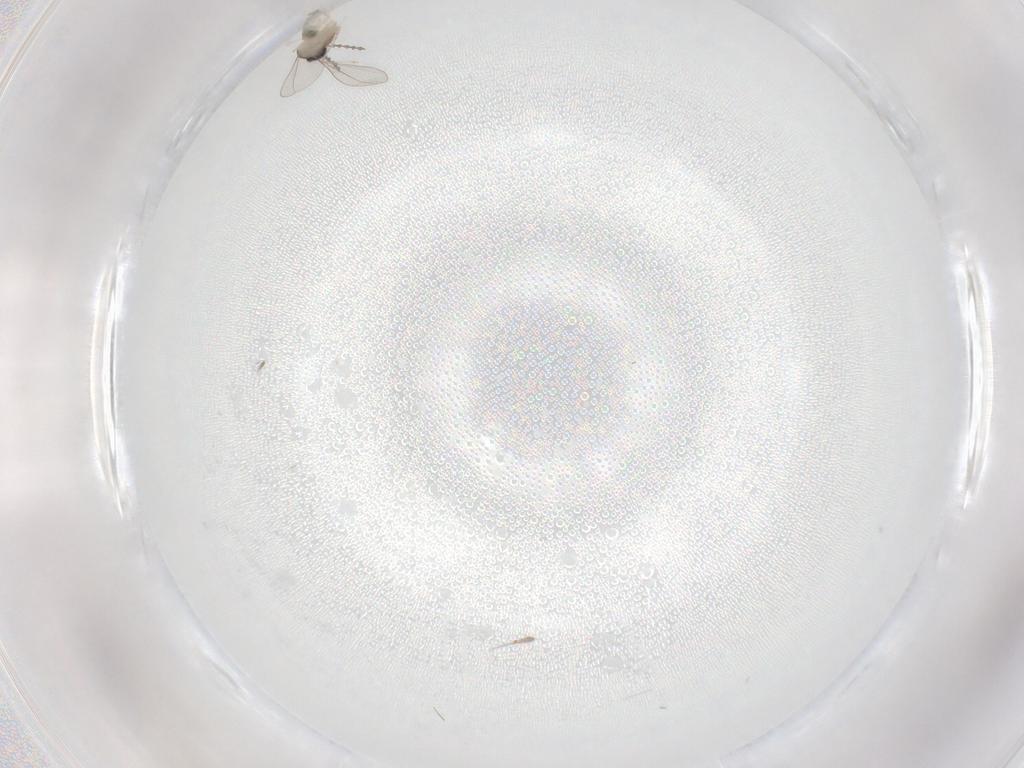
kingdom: Animalia
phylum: Arthropoda
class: Insecta
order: Diptera
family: Cecidomyiidae
